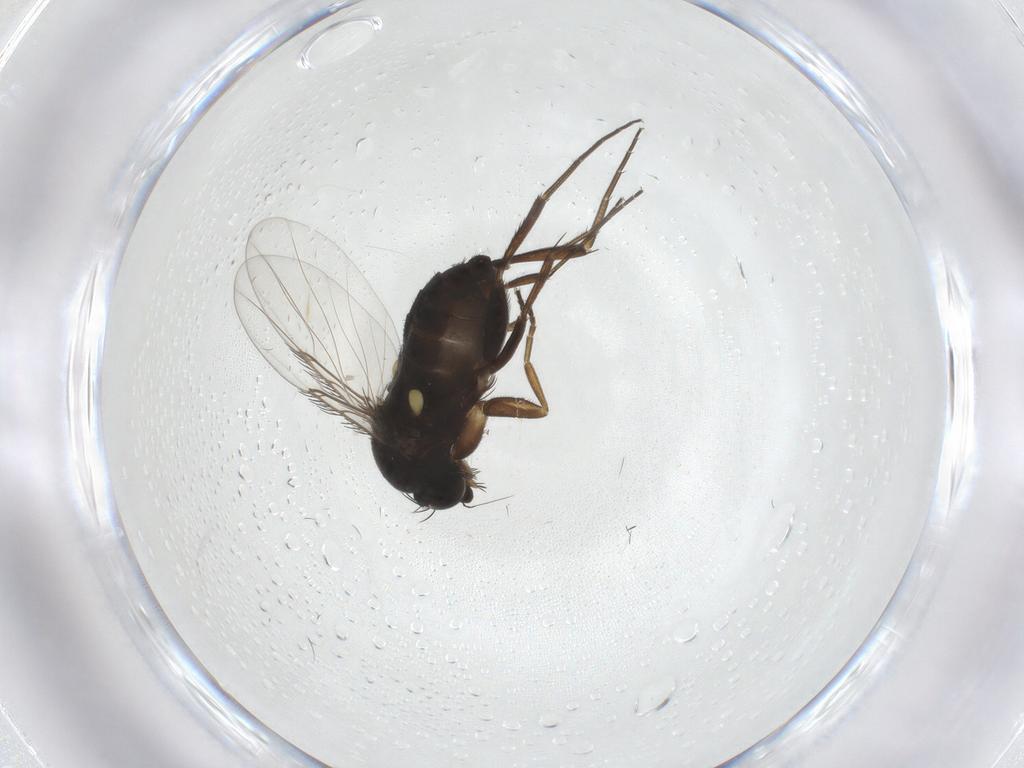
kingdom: Animalia
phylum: Arthropoda
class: Insecta
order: Diptera
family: Phoridae
